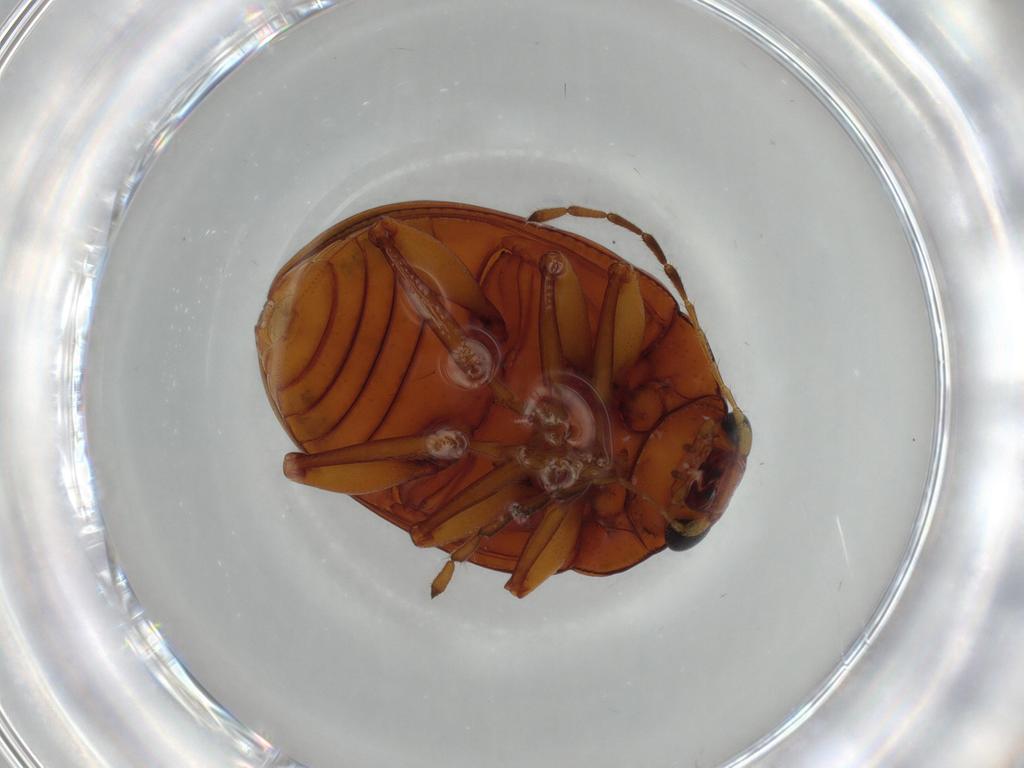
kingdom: Animalia
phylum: Arthropoda
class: Insecta
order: Coleoptera
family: Chrysomelidae
